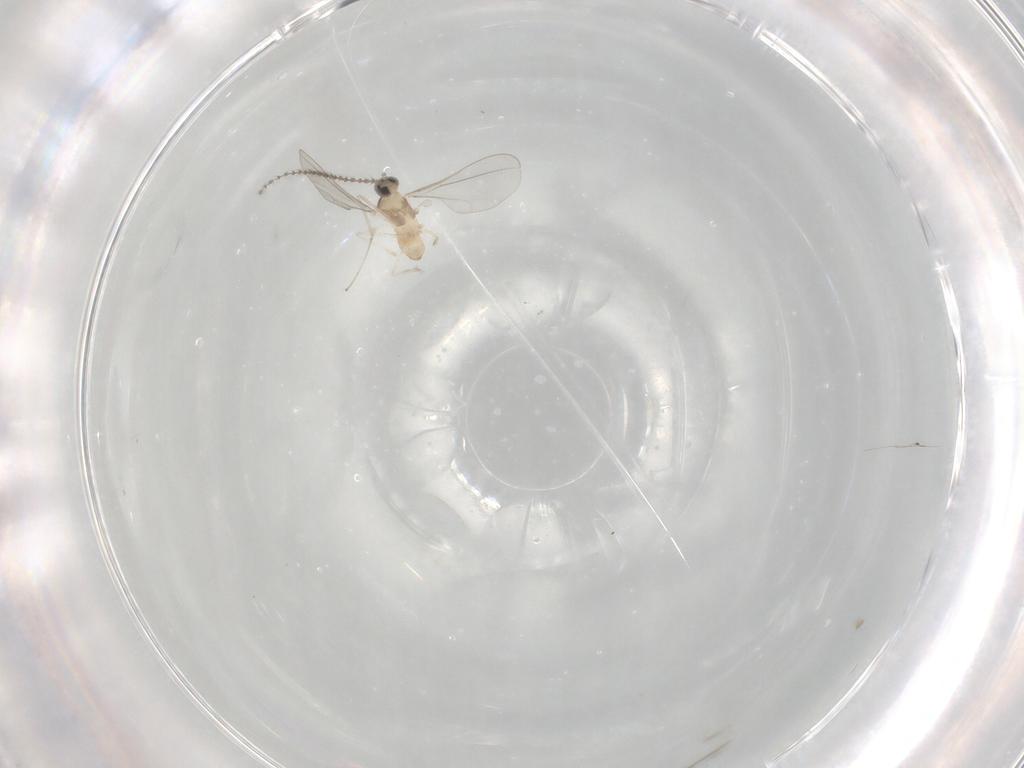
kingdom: Animalia
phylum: Arthropoda
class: Insecta
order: Diptera
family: Cecidomyiidae
